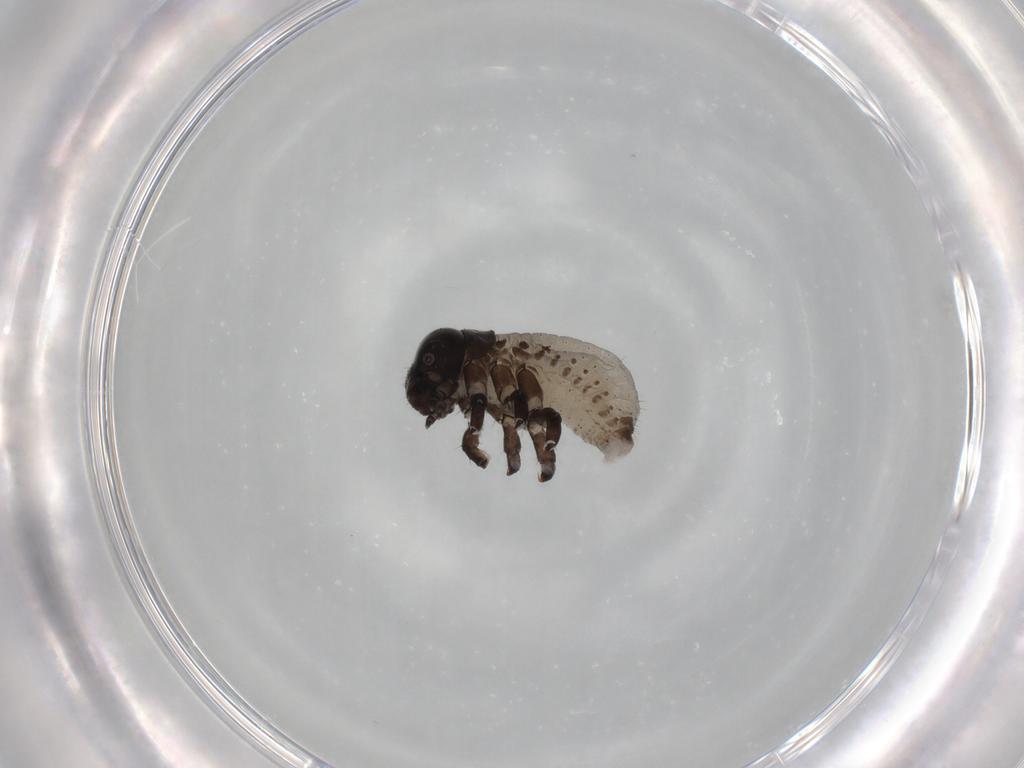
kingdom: Animalia
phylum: Arthropoda
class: Insecta
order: Coleoptera
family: Chrysomelidae
